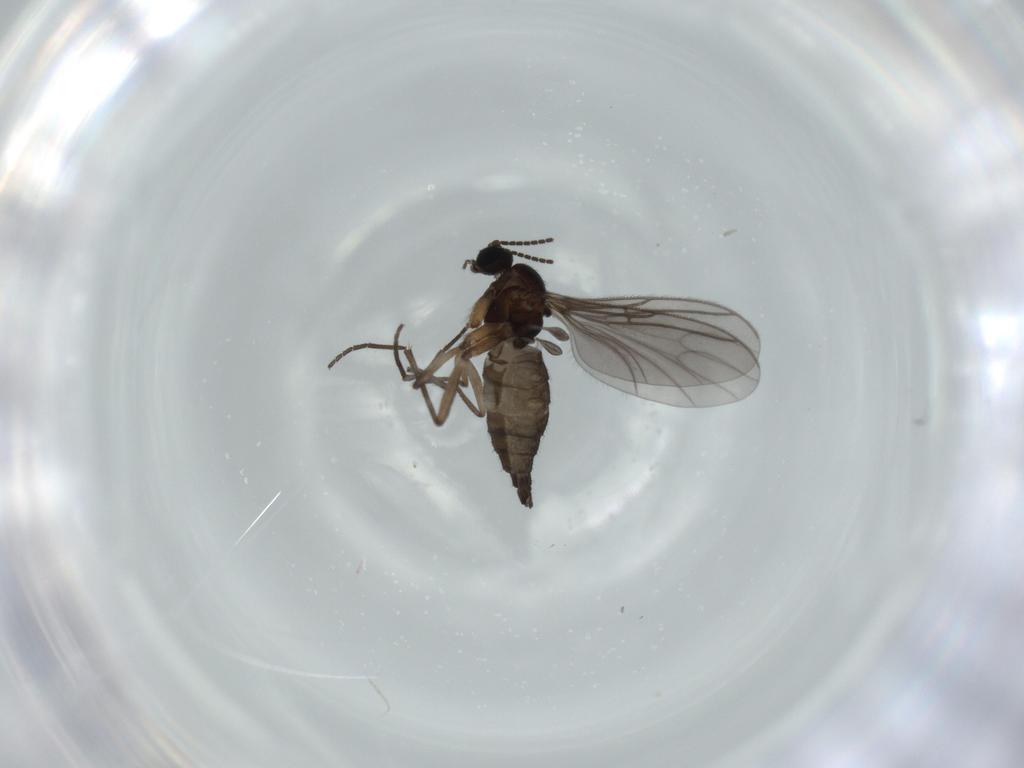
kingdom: Animalia
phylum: Arthropoda
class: Insecta
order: Diptera
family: Sciaridae
